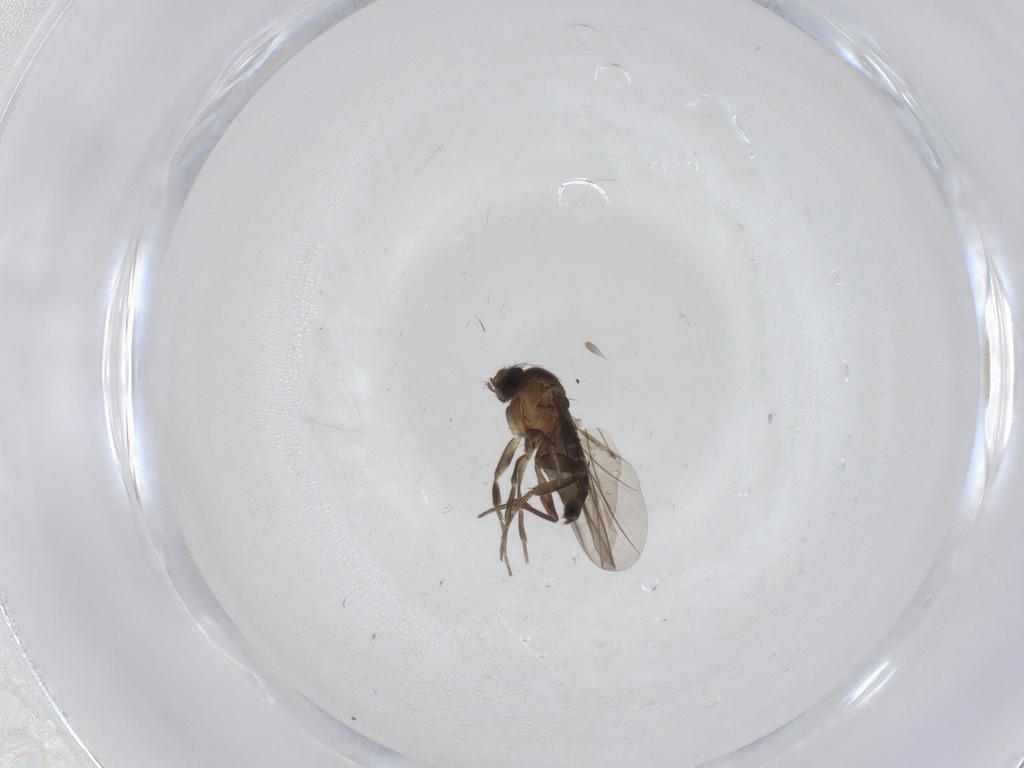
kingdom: Animalia
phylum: Arthropoda
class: Insecta
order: Diptera
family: Phoridae
